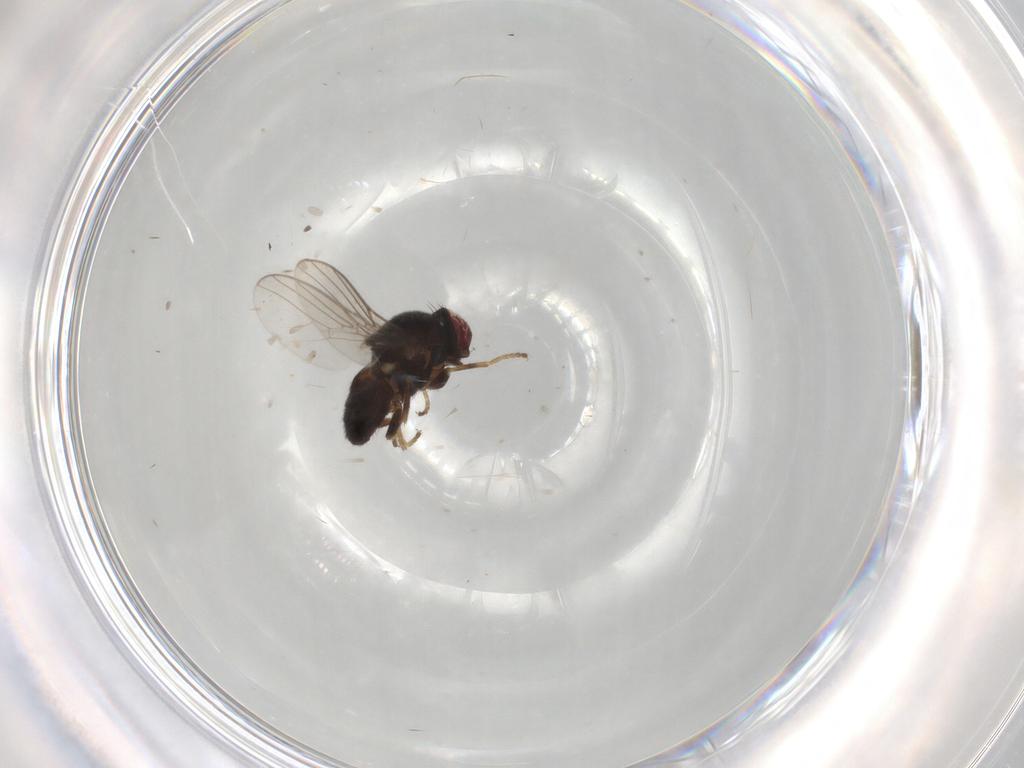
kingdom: Animalia
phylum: Arthropoda
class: Insecta
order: Diptera
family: Chloropidae
